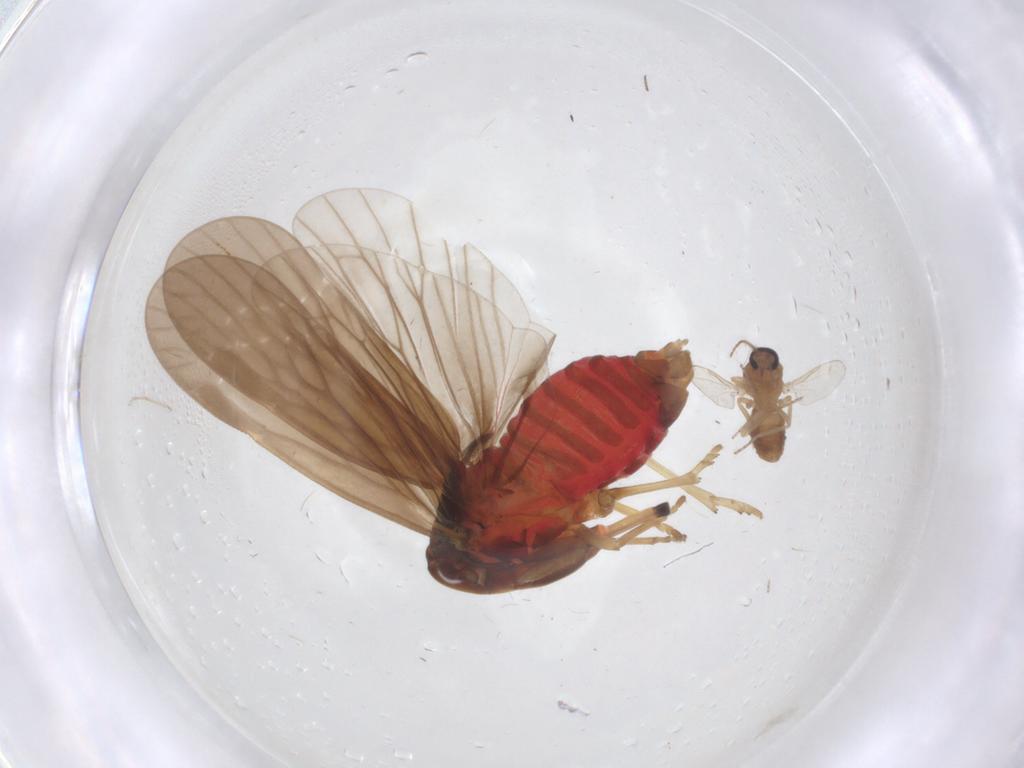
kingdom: Animalia
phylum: Arthropoda
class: Insecta
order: Hemiptera
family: Derbidae
